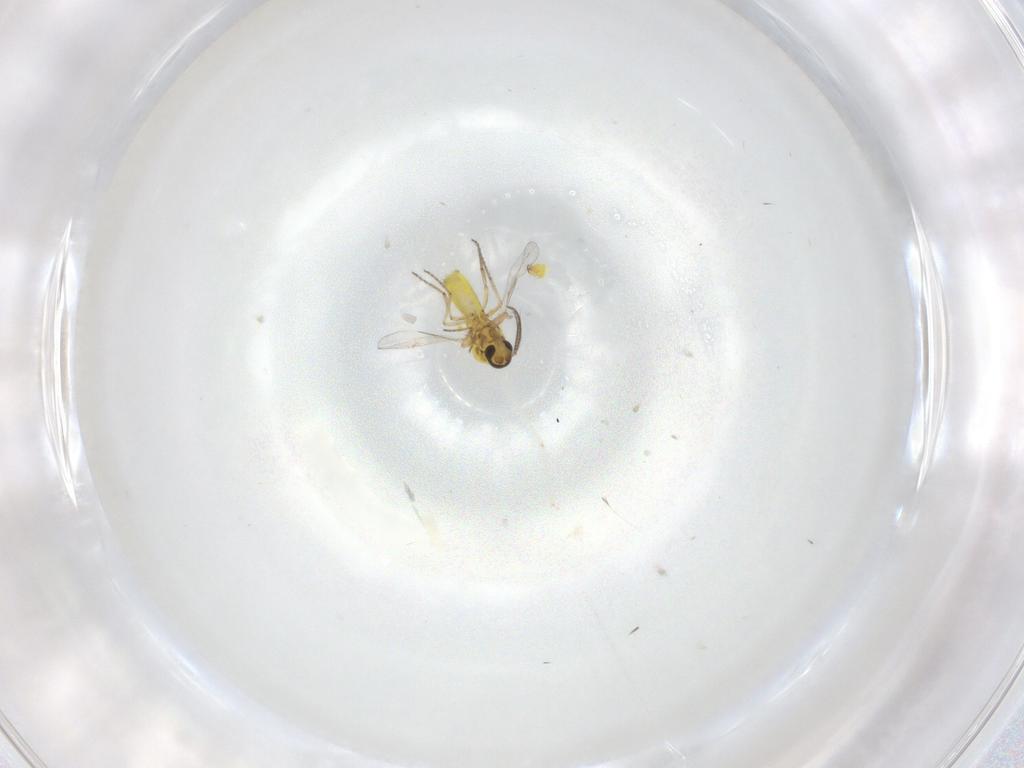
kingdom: Animalia
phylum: Arthropoda
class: Insecta
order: Diptera
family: Ceratopogonidae
